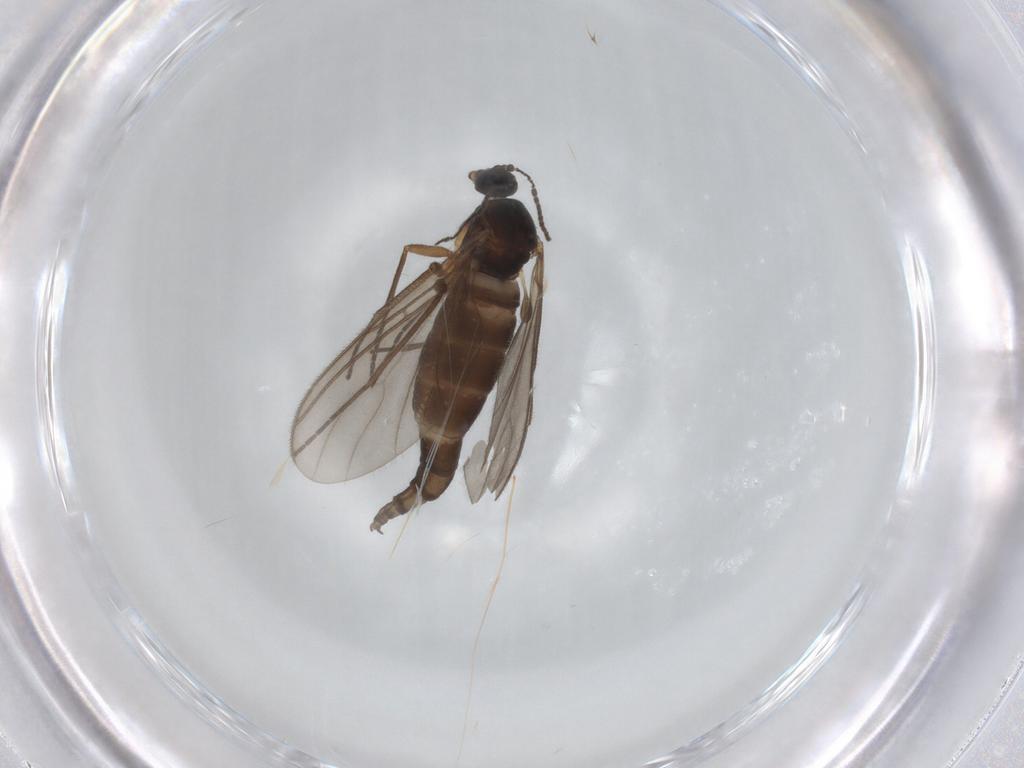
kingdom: Animalia
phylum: Arthropoda
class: Insecta
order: Diptera
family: Sciaridae
